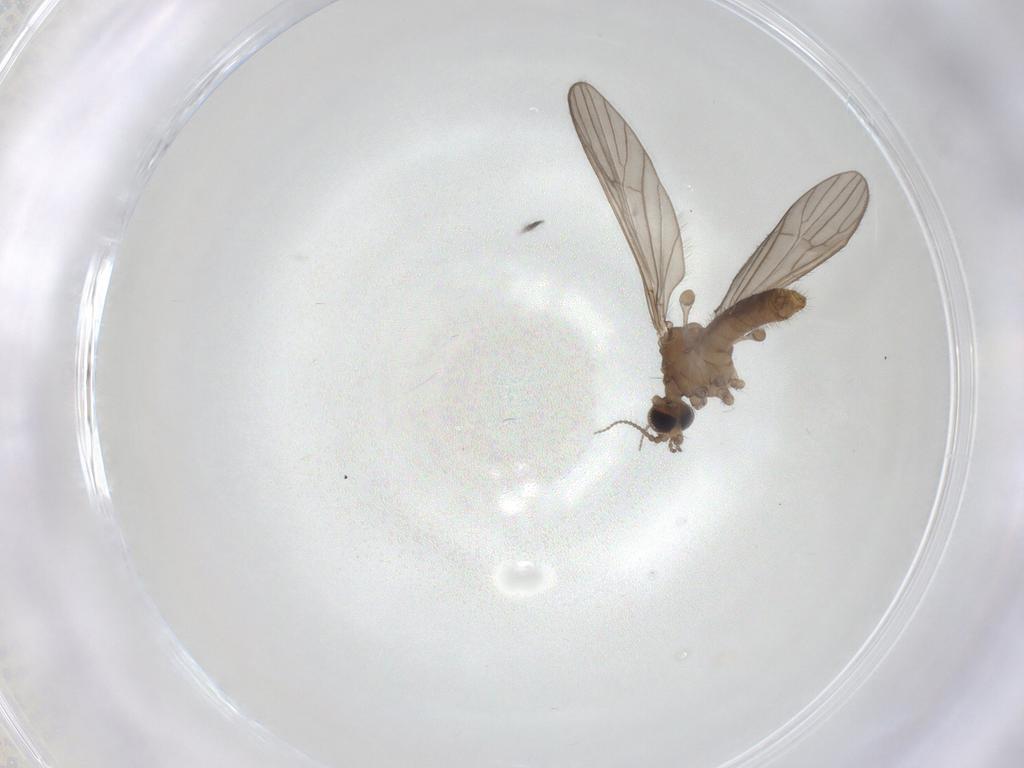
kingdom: Animalia
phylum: Arthropoda
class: Insecta
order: Diptera
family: Limoniidae
